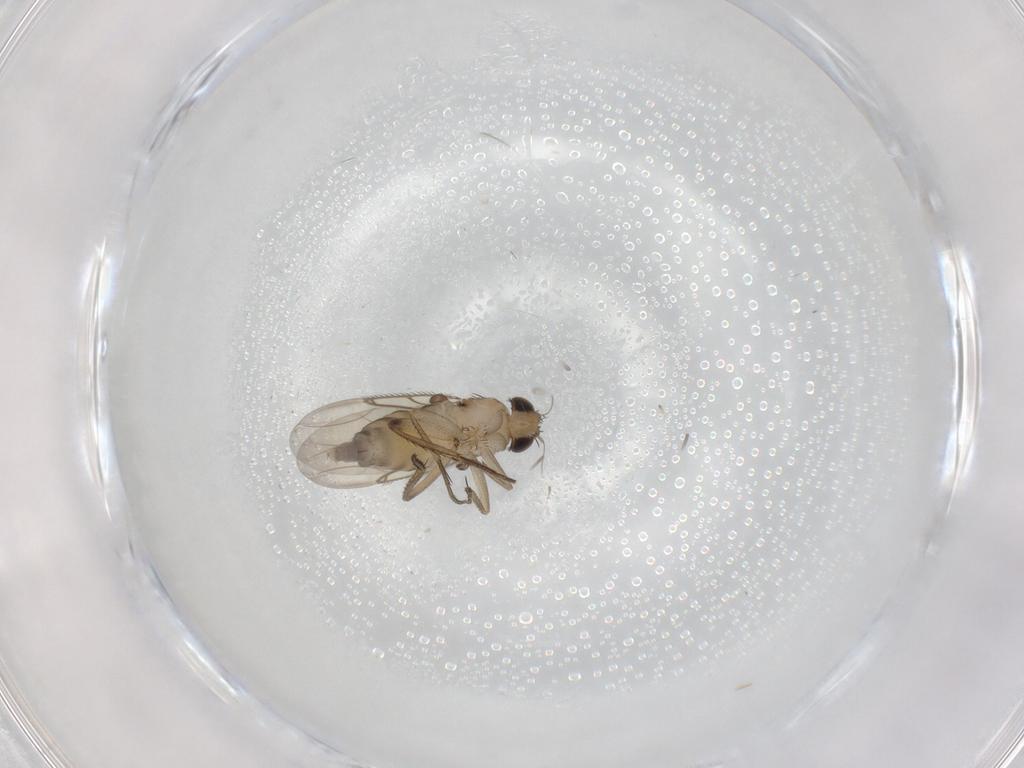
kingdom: Animalia
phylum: Arthropoda
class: Insecta
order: Diptera
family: Phoridae
